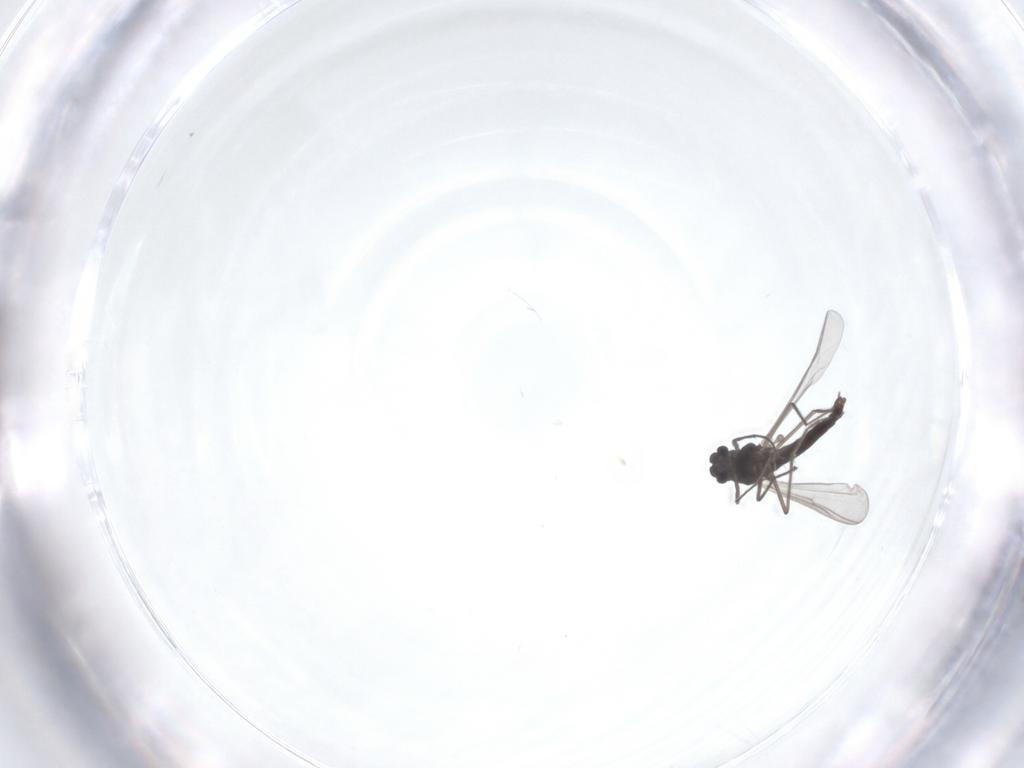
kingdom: Animalia
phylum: Arthropoda
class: Insecta
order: Diptera
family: Chironomidae
